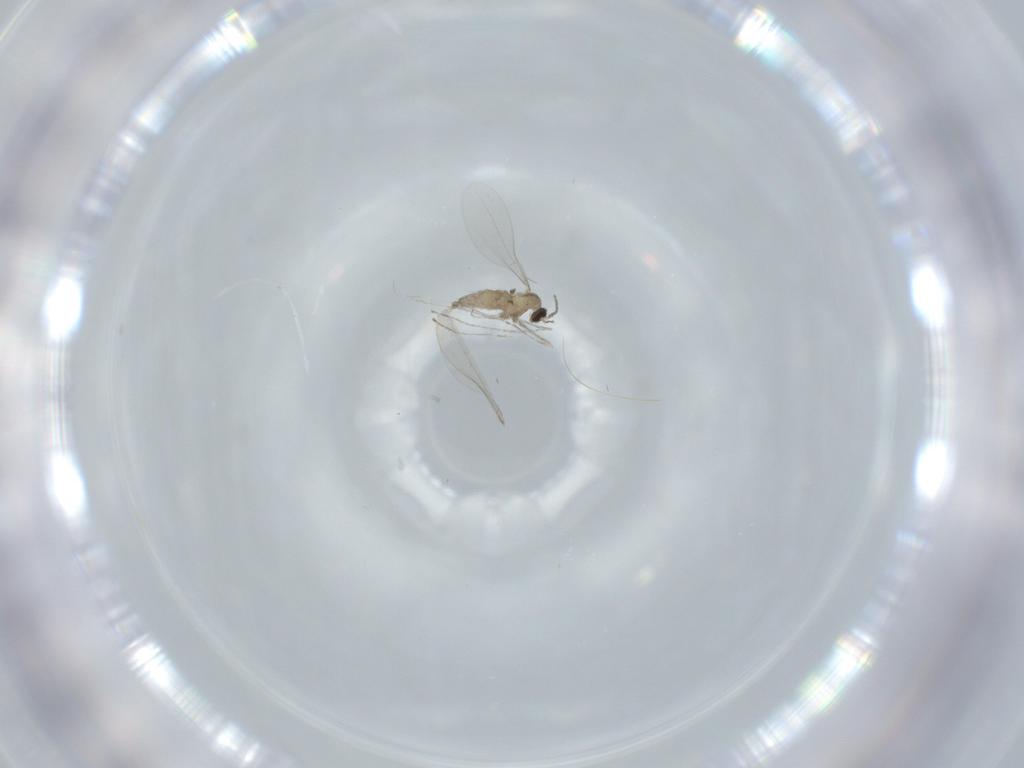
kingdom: Animalia
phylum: Arthropoda
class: Insecta
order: Diptera
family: Cecidomyiidae
